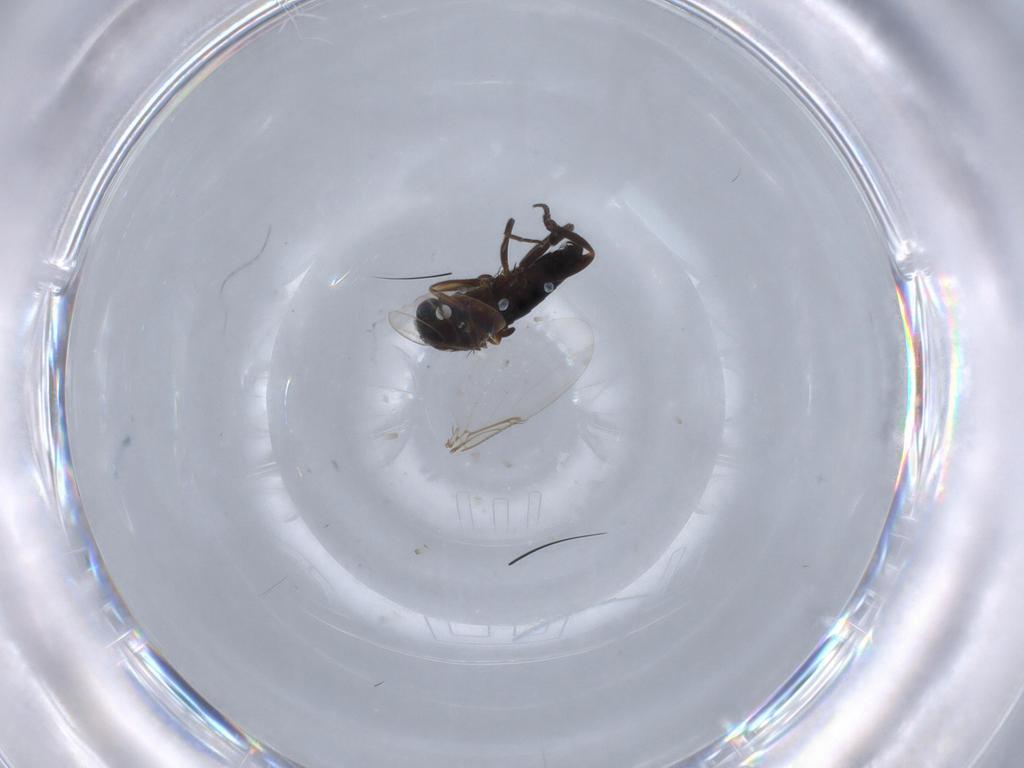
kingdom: Animalia
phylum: Arthropoda
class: Insecta
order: Diptera
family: Phoridae
